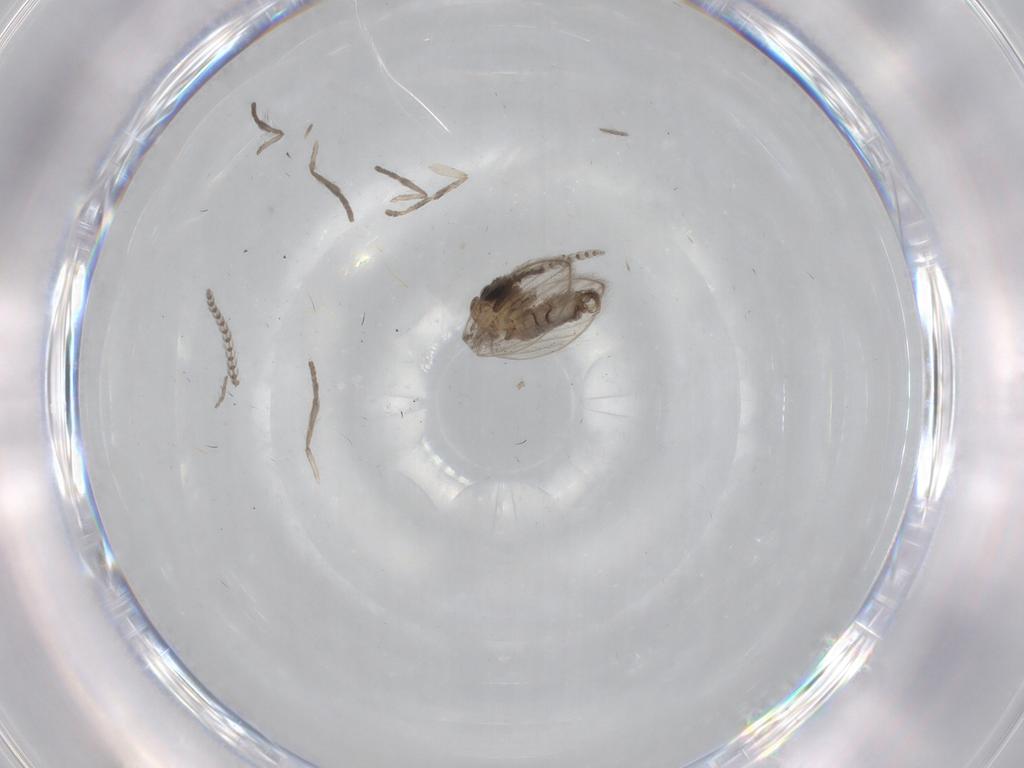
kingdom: Animalia
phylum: Arthropoda
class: Insecta
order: Diptera
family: Psychodidae
